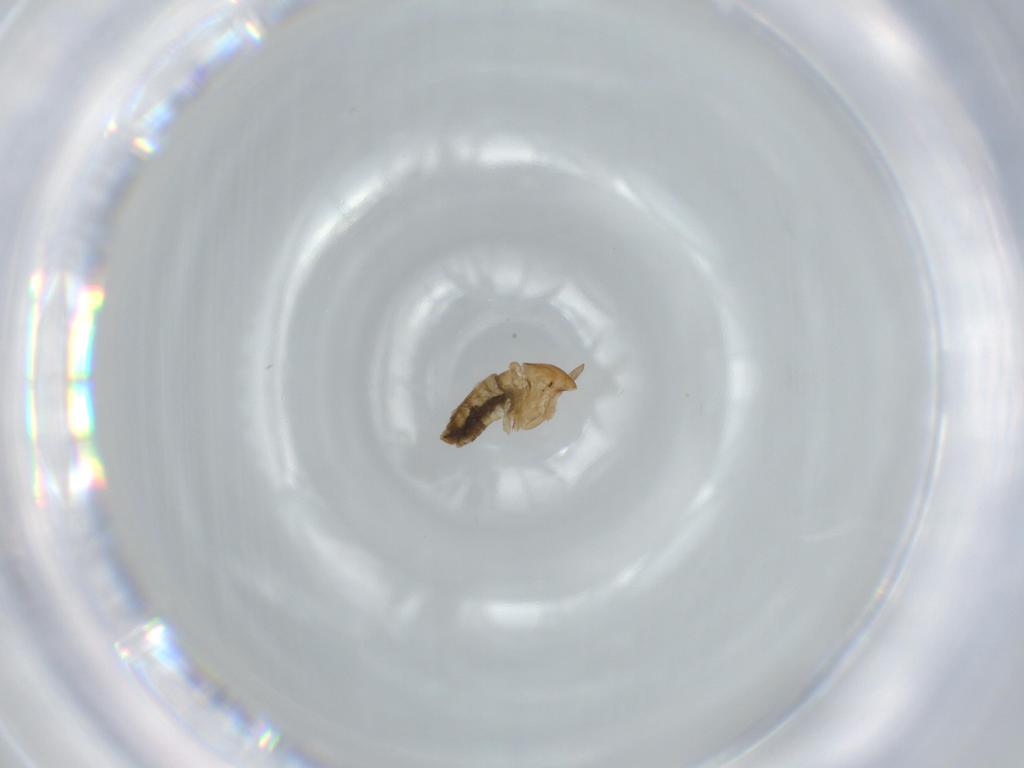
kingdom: Animalia
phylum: Arthropoda
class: Insecta
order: Diptera
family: Chironomidae
